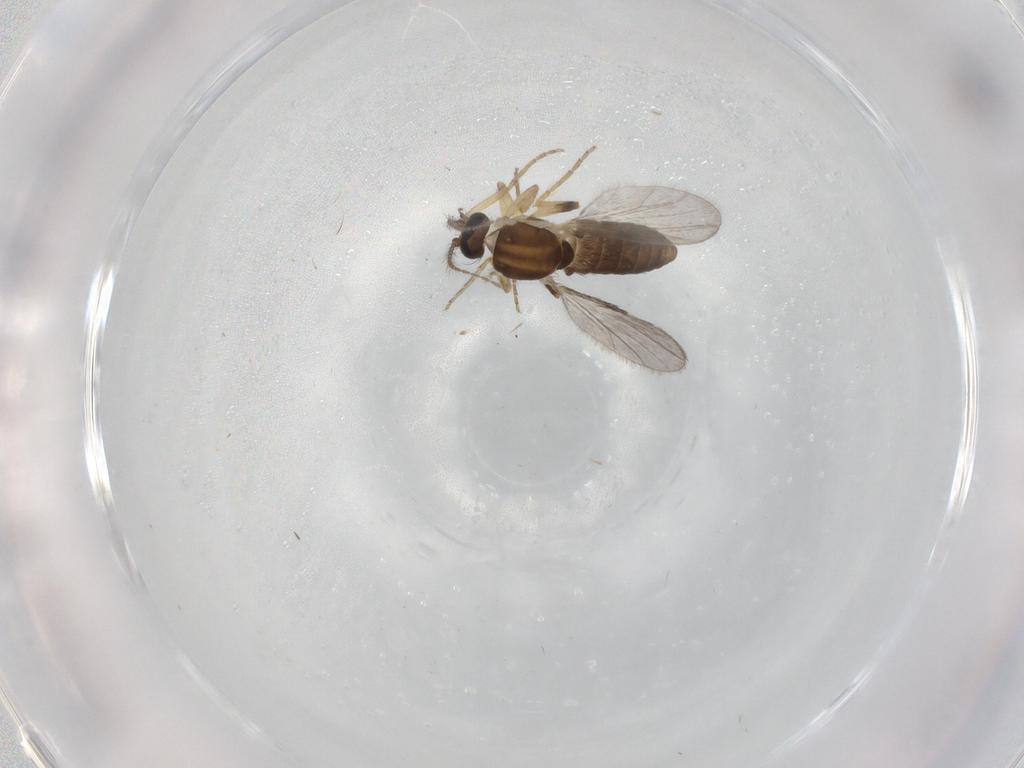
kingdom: Animalia
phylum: Arthropoda
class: Insecta
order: Diptera
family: Ceratopogonidae
